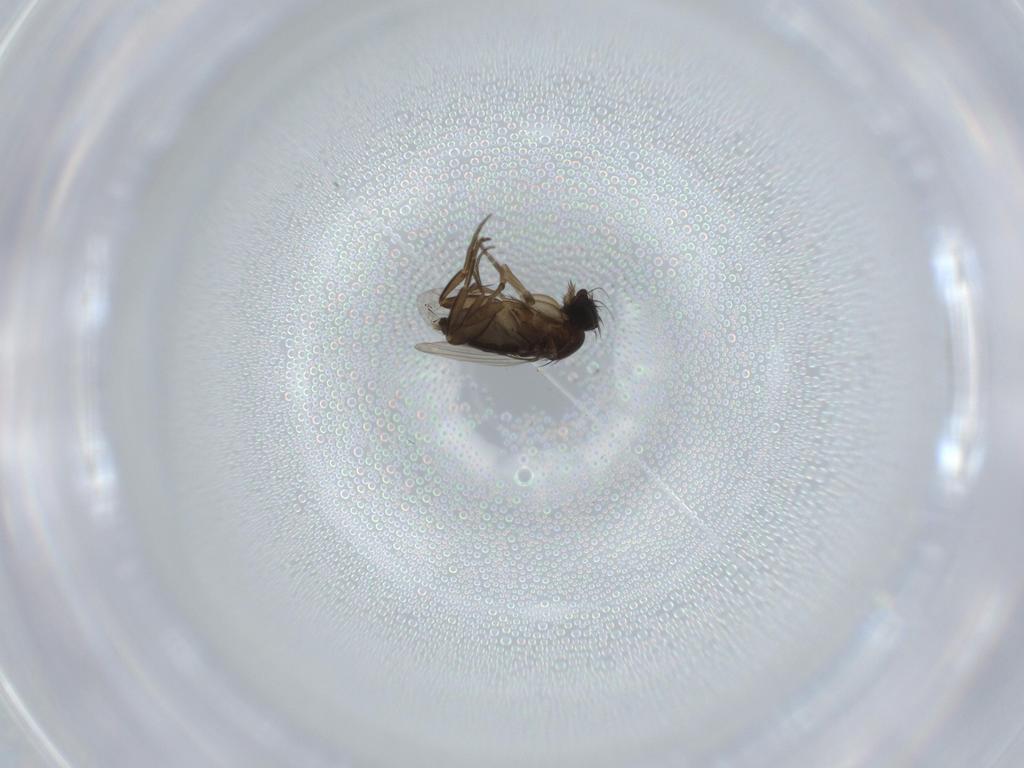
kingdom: Animalia
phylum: Arthropoda
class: Insecta
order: Diptera
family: Phoridae
